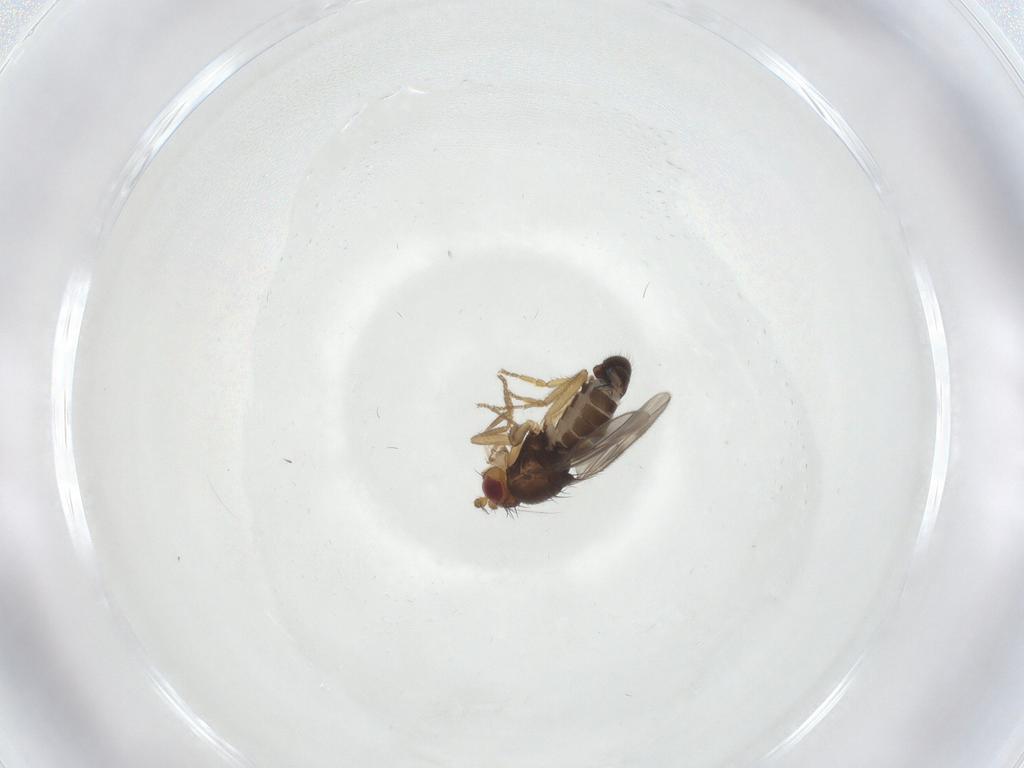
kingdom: Animalia
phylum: Arthropoda
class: Insecta
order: Diptera
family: Sphaeroceridae
